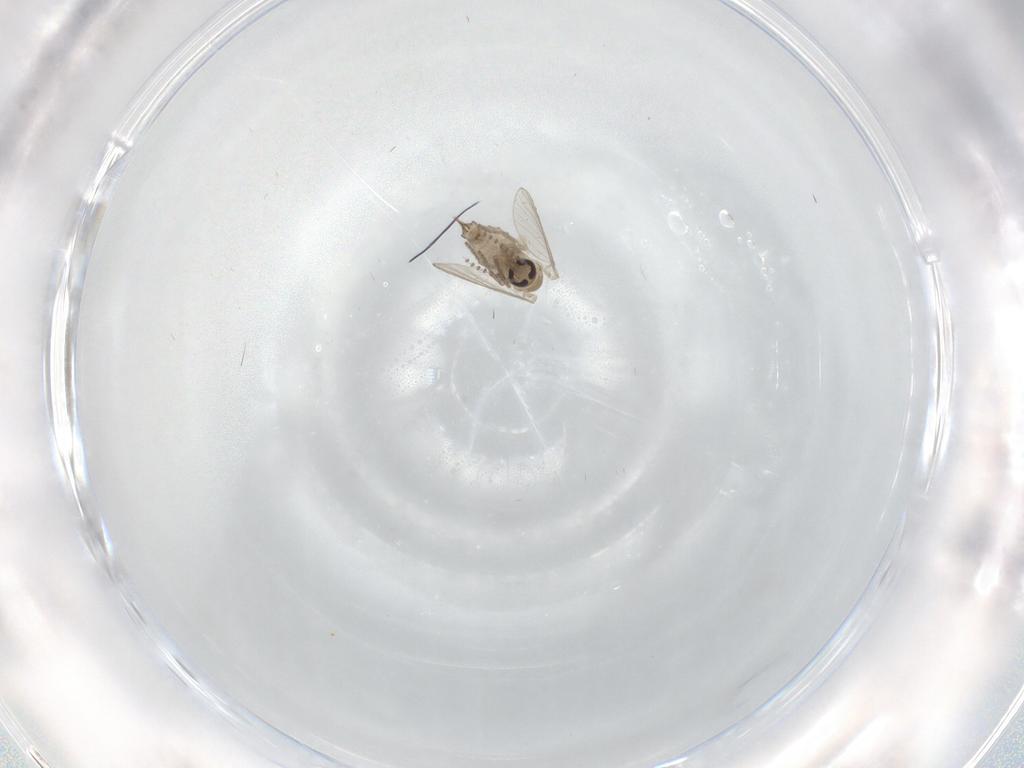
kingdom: Animalia
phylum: Arthropoda
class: Insecta
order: Diptera
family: Psychodidae
